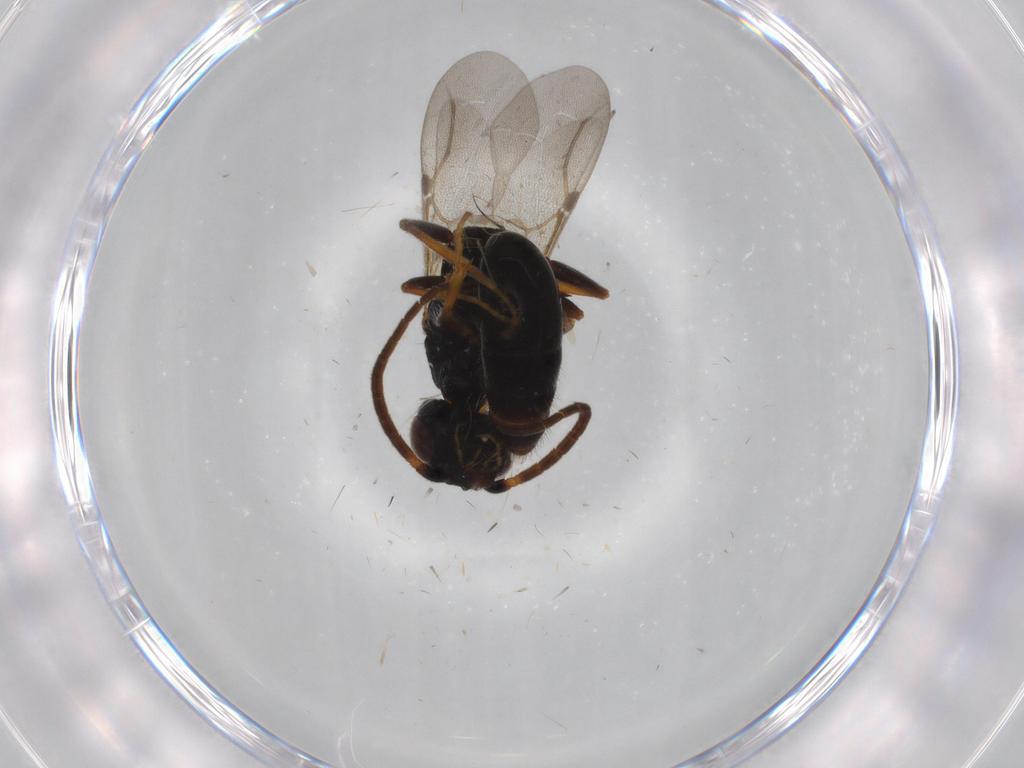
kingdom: Animalia
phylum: Arthropoda
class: Insecta
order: Hymenoptera
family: Bethylidae
